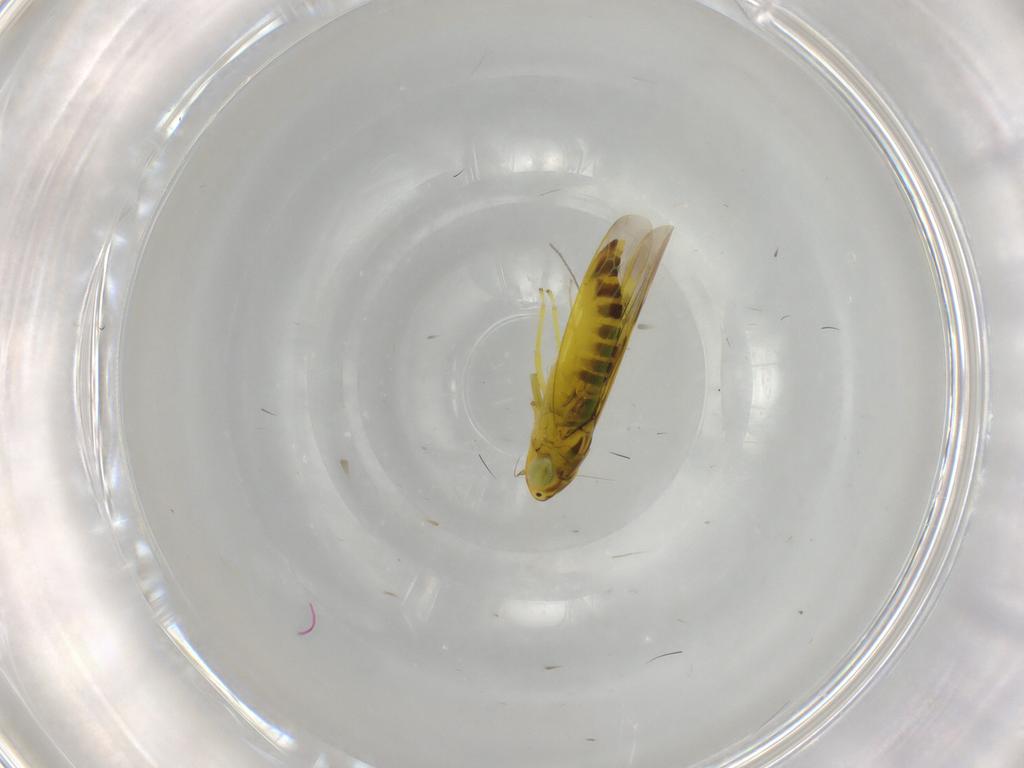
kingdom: Animalia
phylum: Arthropoda
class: Insecta
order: Hemiptera
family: Cicadellidae
